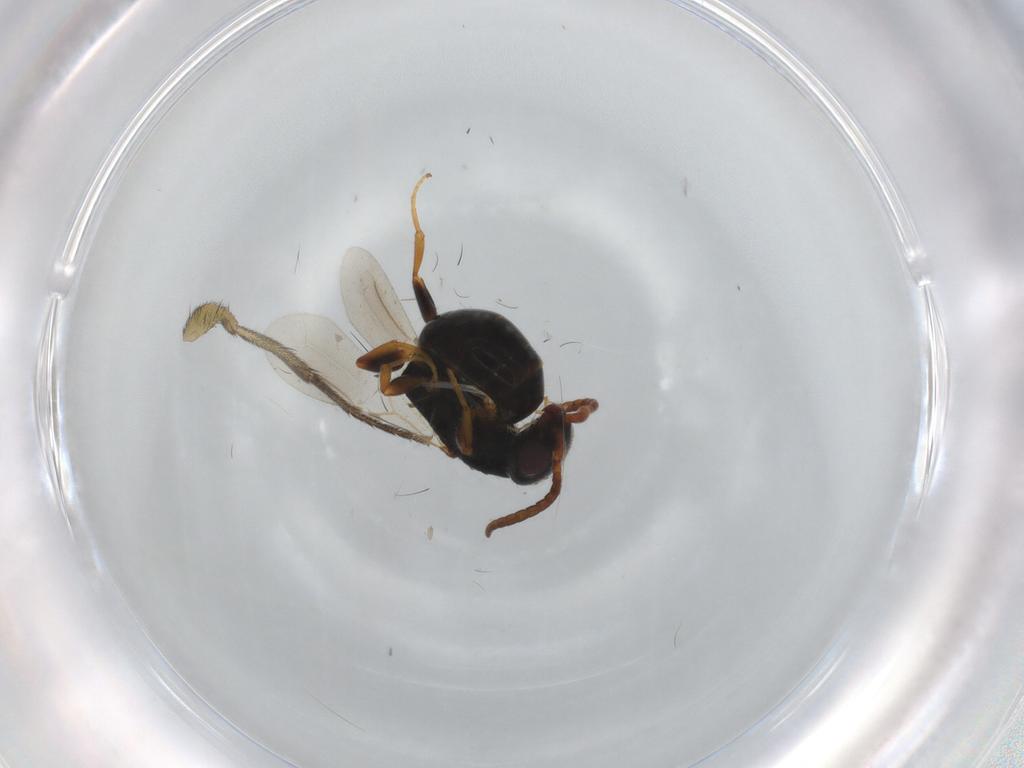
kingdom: Animalia
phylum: Arthropoda
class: Insecta
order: Hymenoptera
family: Bethylidae
